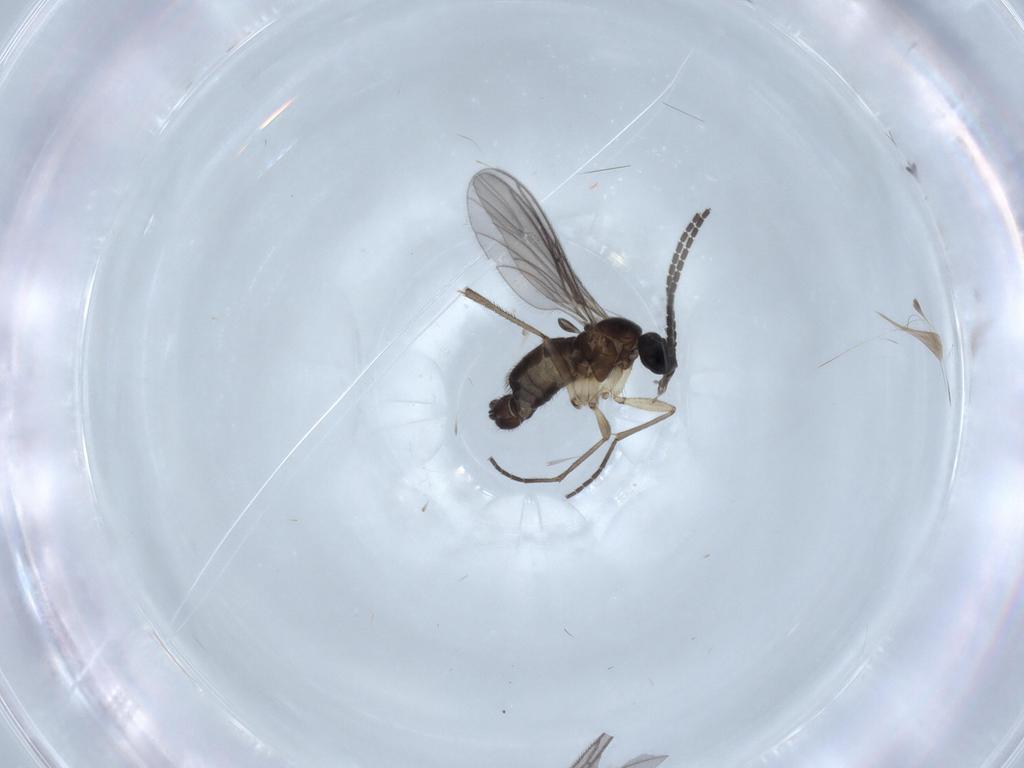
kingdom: Animalia
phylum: Arthropoda
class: Insecta
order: Diptera
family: Sciaridae
